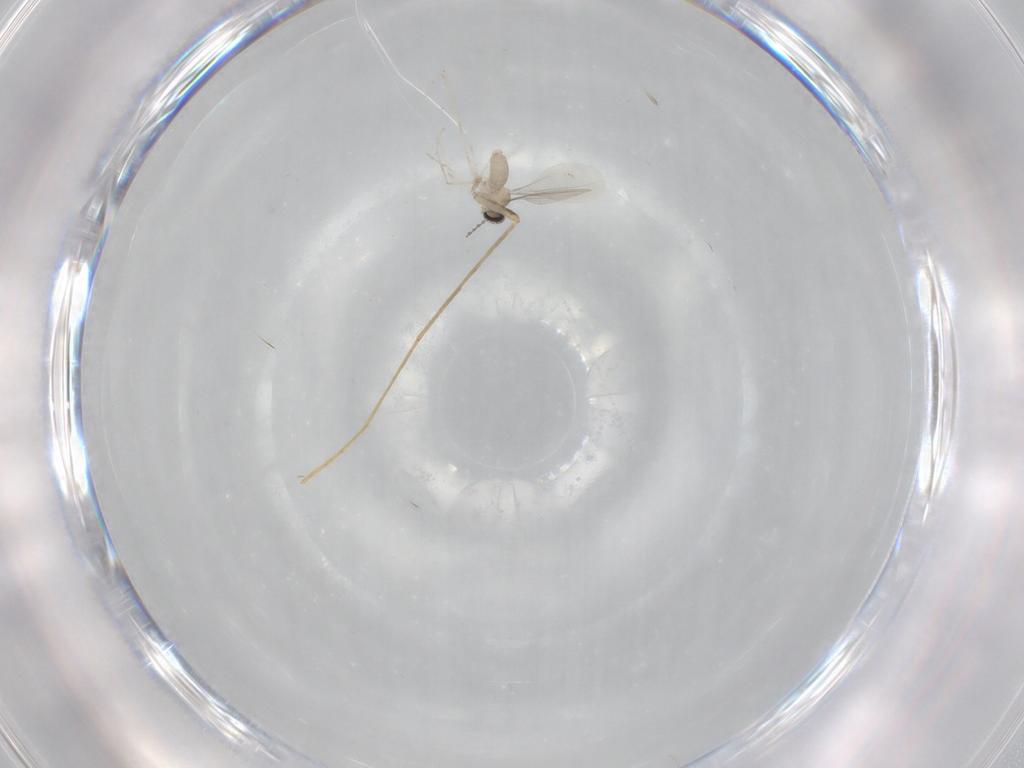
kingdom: Animalia
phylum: Arthropoda
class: Insecta
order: Diptera
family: Cecidomyiidae
